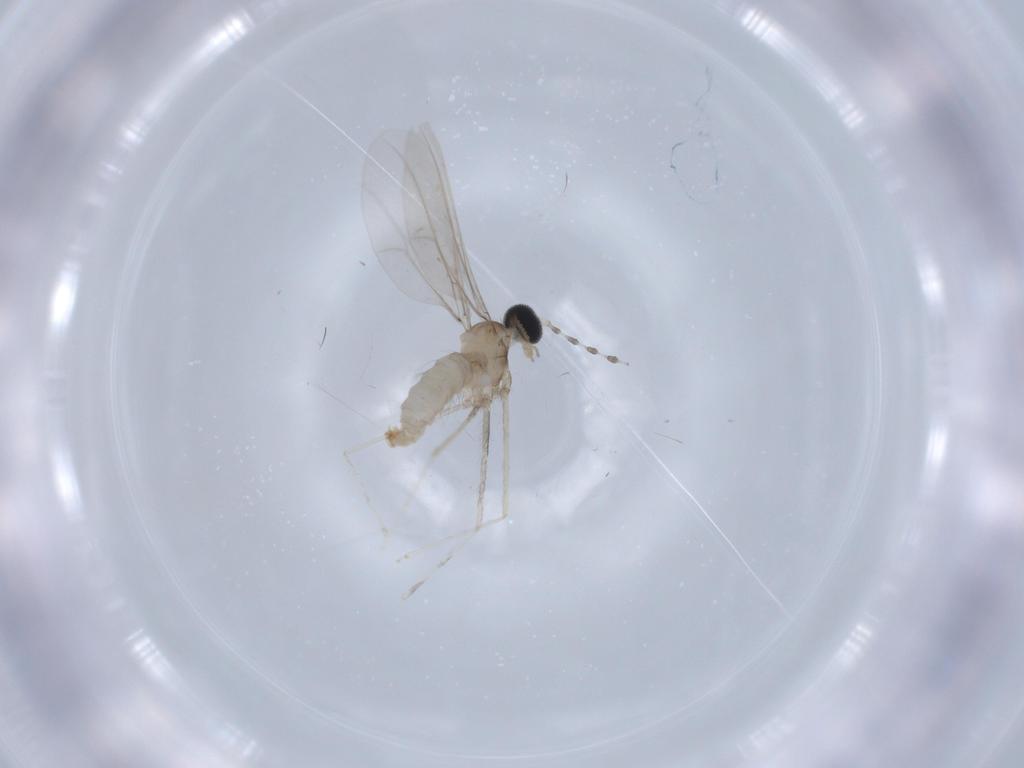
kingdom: Animalia
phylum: Arthropoda
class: Insecta
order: Diptera
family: Cecidomyiidae
